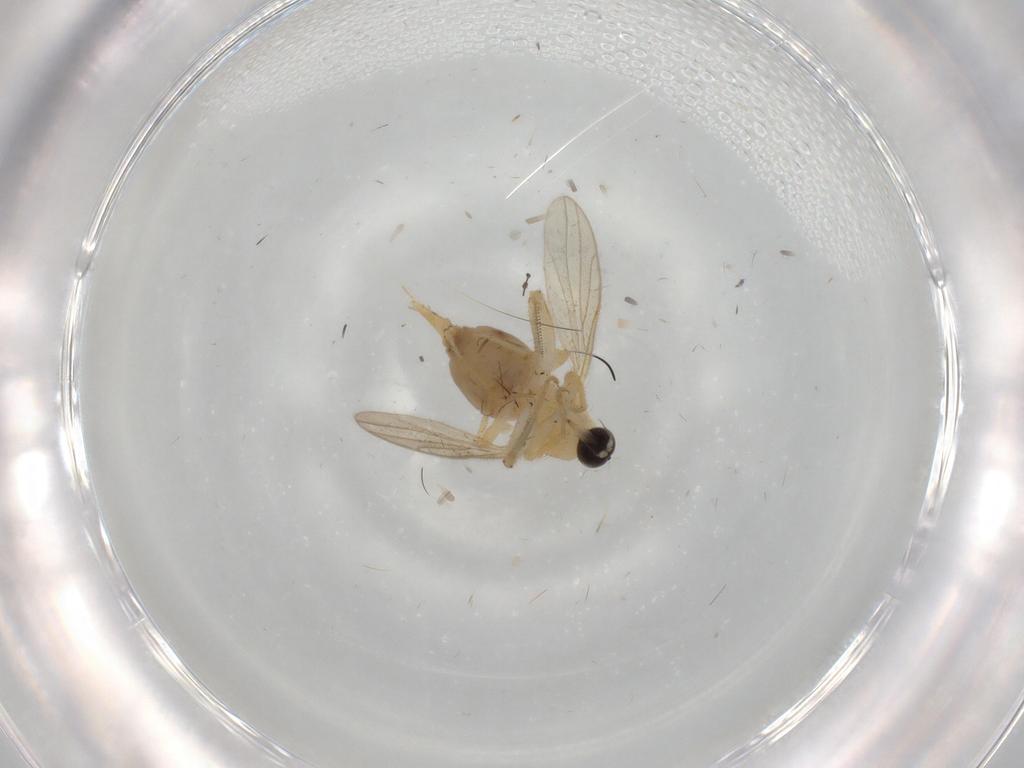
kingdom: Animalia
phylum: Arthropoda
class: Insecta
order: Diptera
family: Hybotidae
